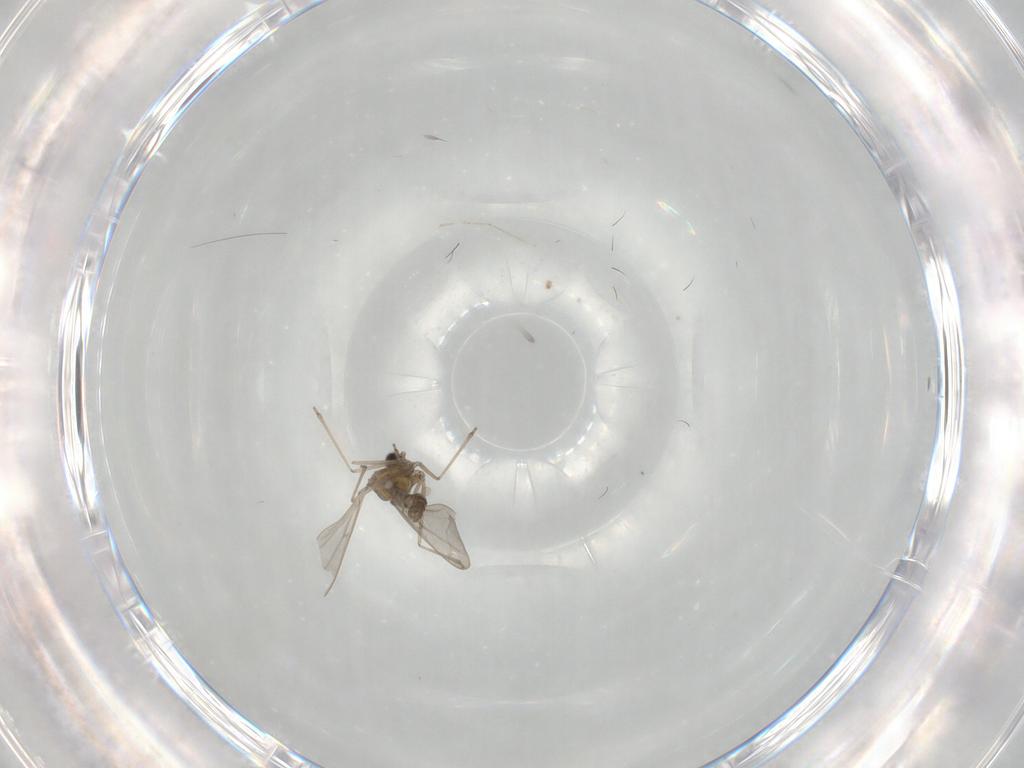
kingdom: Animalia
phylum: Arthropoda
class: Insecta
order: Diptera
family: Cecidomyiidae
